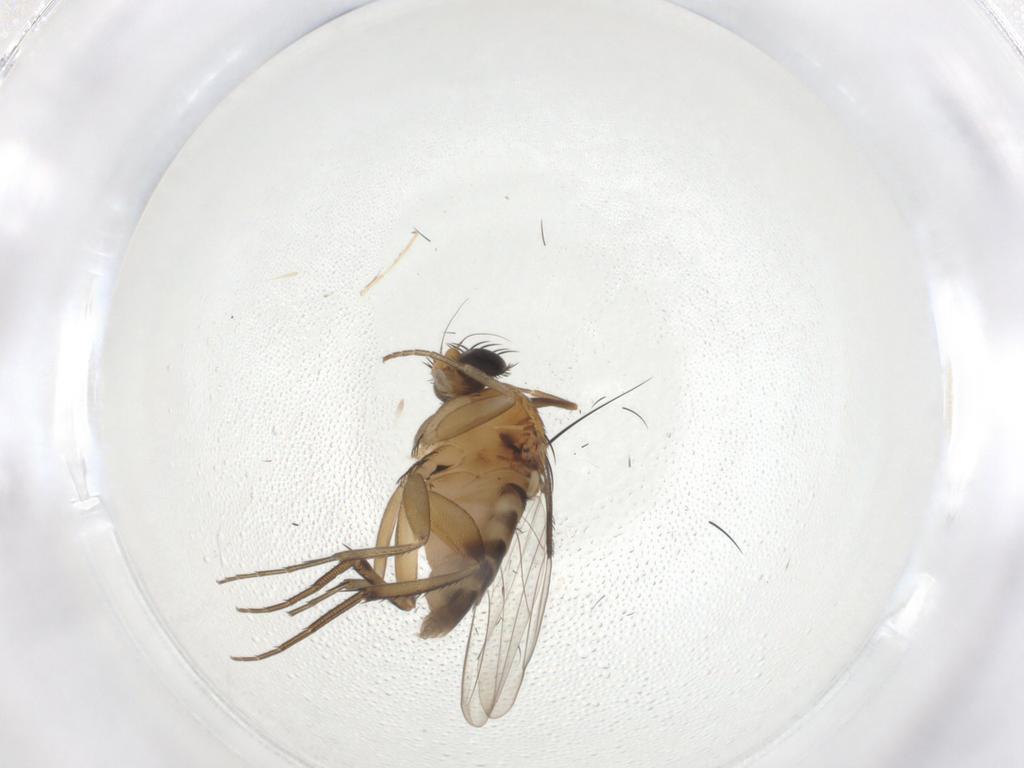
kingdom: Animalia
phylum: Arthropoda
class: Insecta
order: Diptera
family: Phoridae
